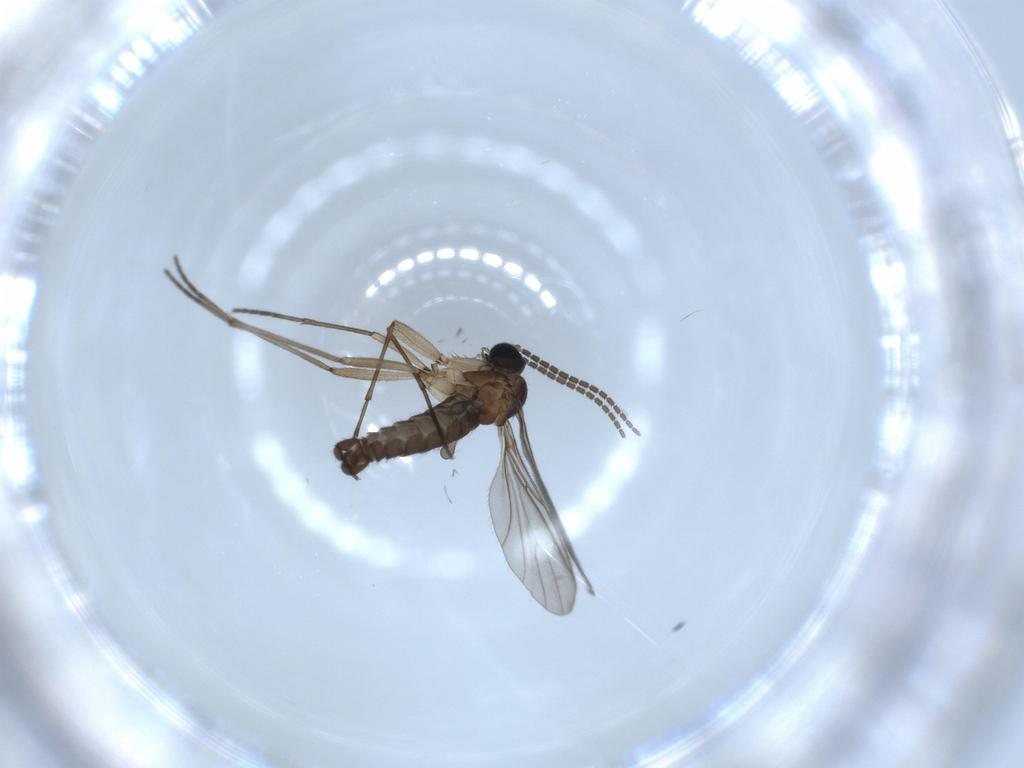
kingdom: Animalia
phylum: Arthropoda
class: Insecta
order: Diptera
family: Sciaridae
